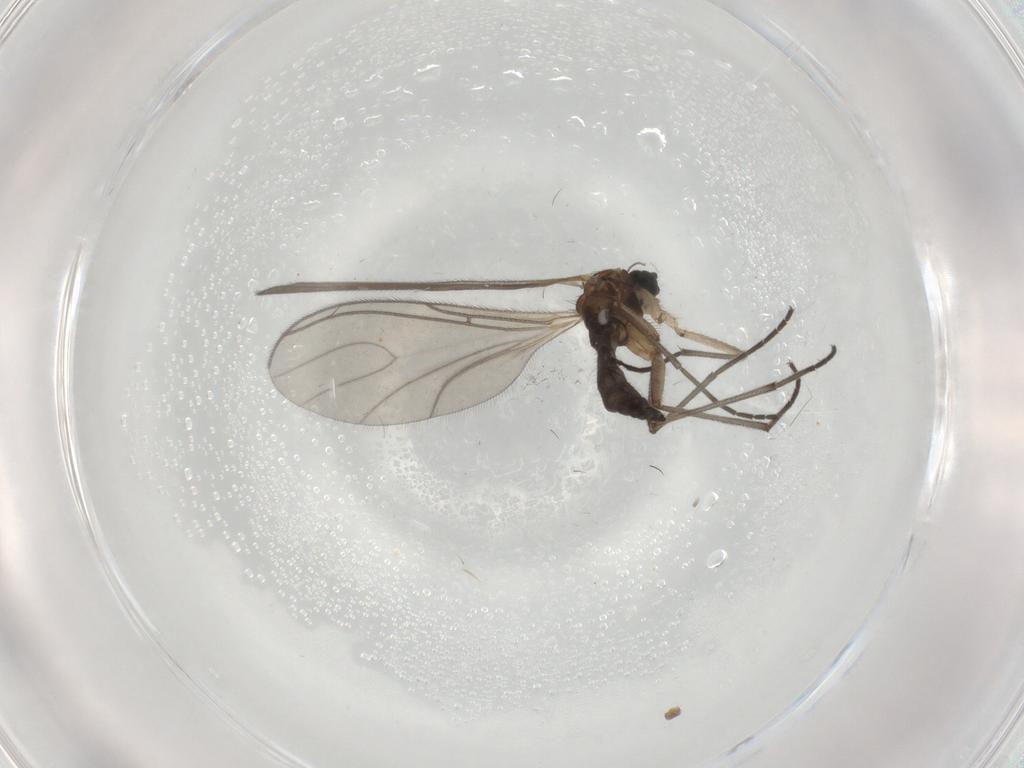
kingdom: Animalia
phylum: Arthropoda
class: Insecta
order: Diptera
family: Sciaridae
